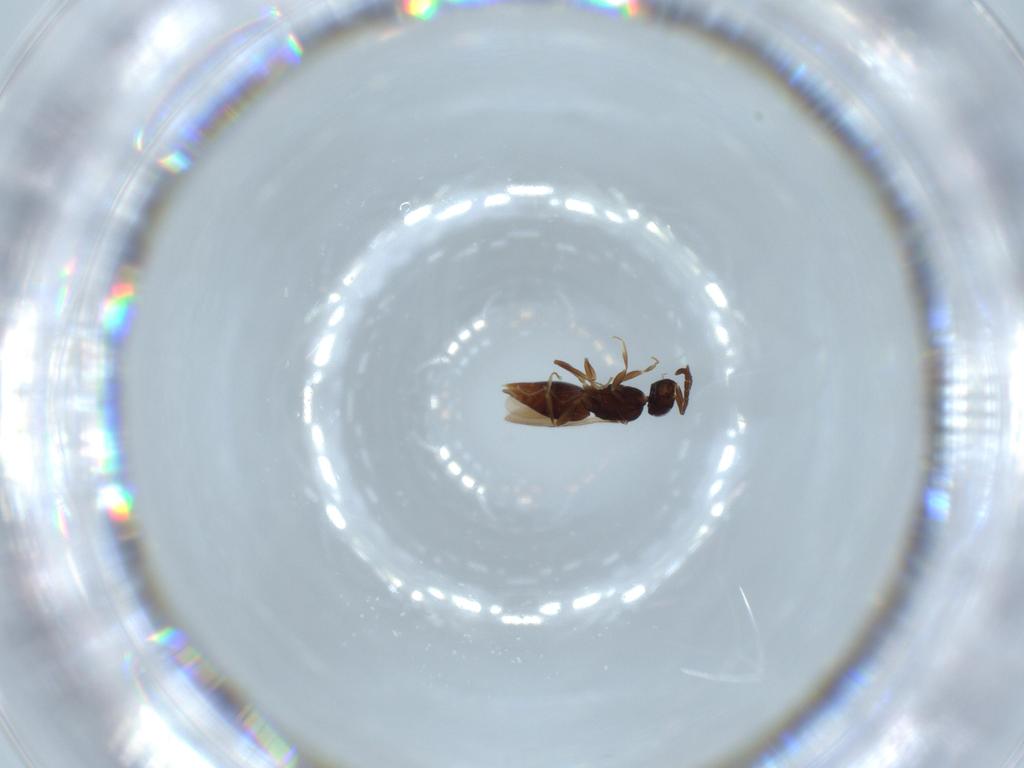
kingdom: Animalia
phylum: Arthropoda
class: Insecta
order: Hymenoptera
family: Ceraphronidae
